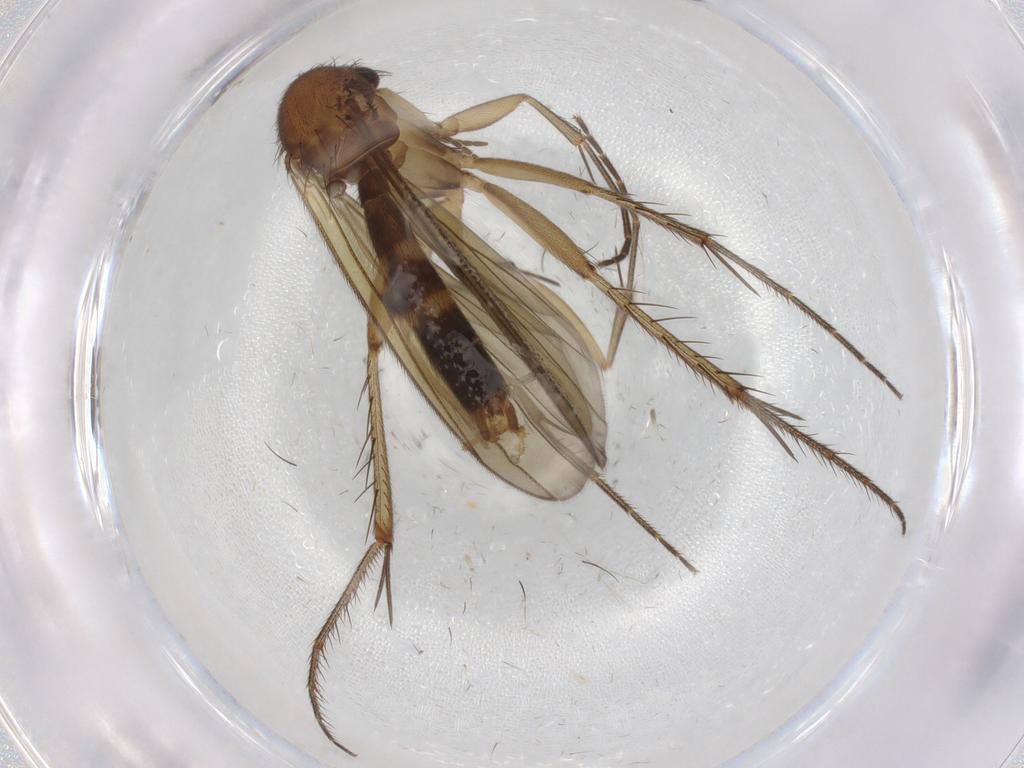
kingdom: Animalia
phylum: Arthropoda
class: Insecta
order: Diptera
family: Mycetophilidae
